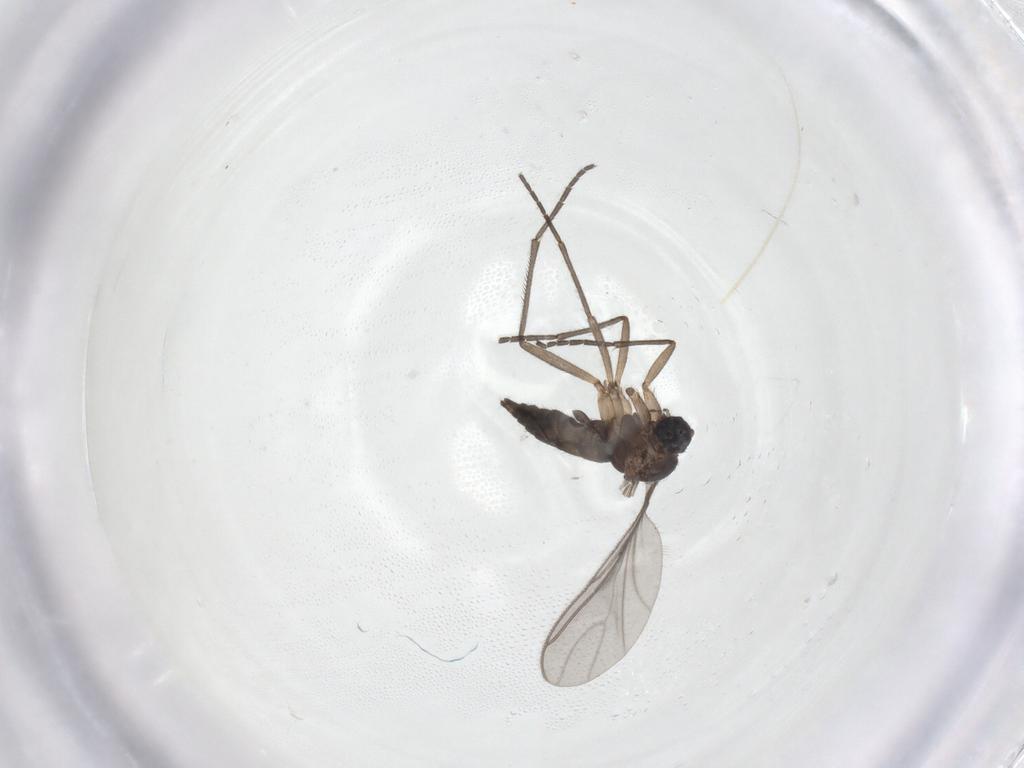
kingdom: Animalia
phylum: Arthropoda
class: Insecta
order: Diptera
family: Sciaridae
